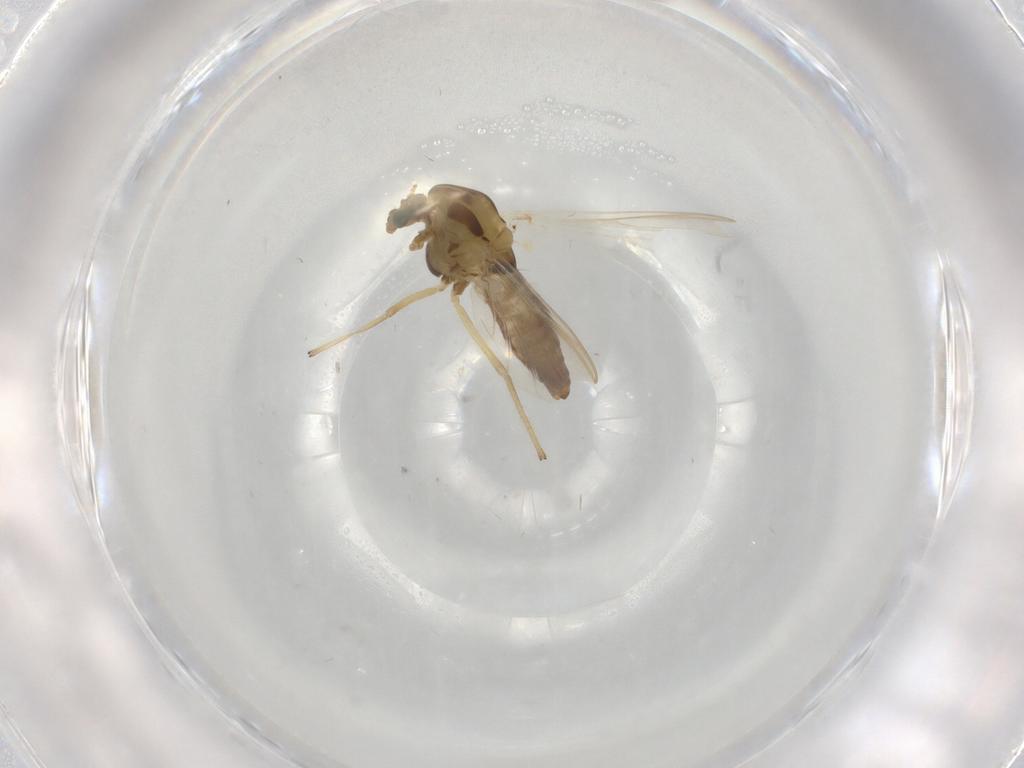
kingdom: Animalia
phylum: Arthropoda
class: Insecta
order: Diptera
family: Chironomidae
